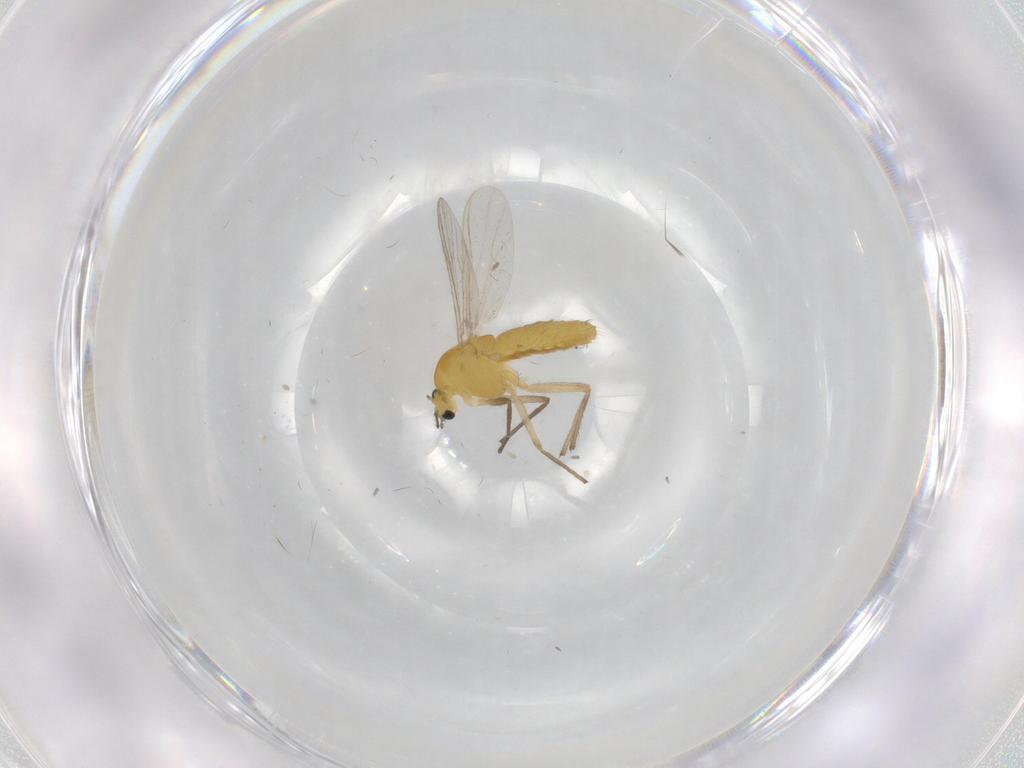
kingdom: Animalia
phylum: Arthropoda
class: Insecta
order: Diptera
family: Chironomidae
